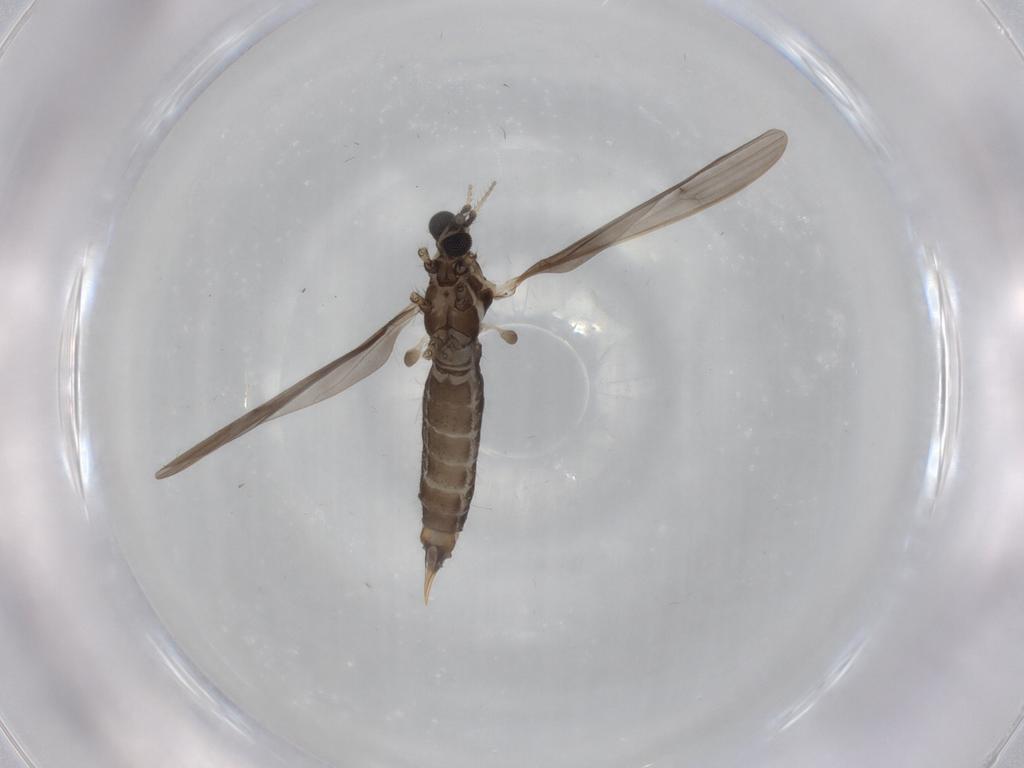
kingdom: Animalia
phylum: Arthropoda
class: Insecta
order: Diptera
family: Limoniidae
